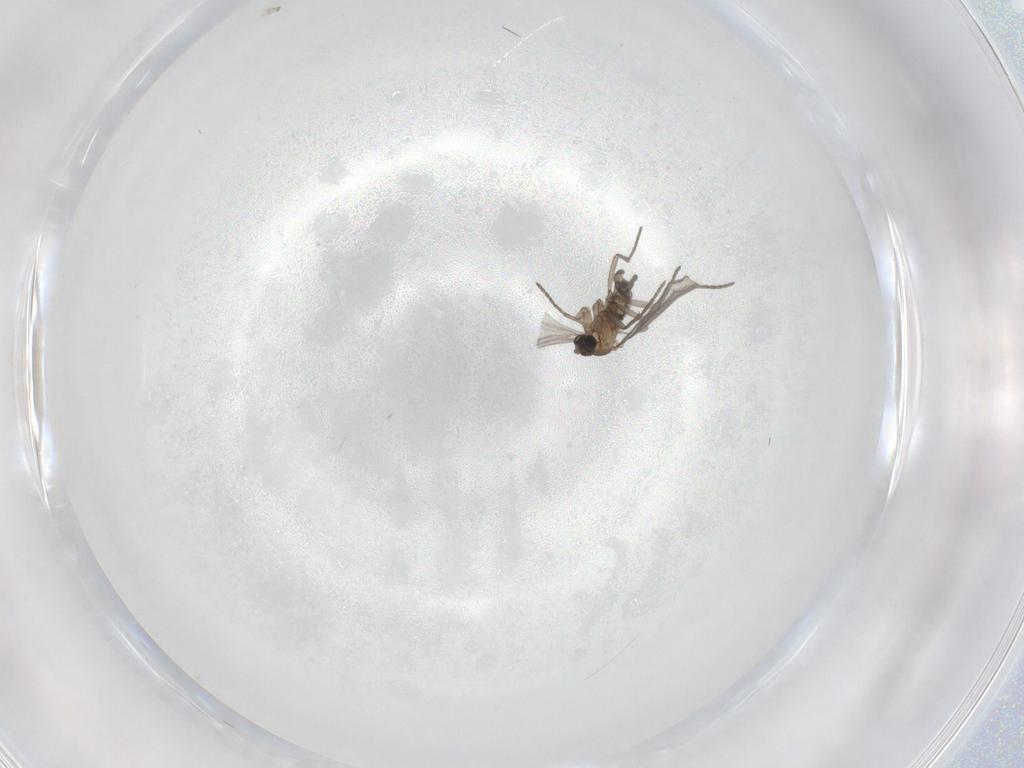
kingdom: Animalia
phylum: Arthropoda
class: Insecta
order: Diptera
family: Sciaridae
